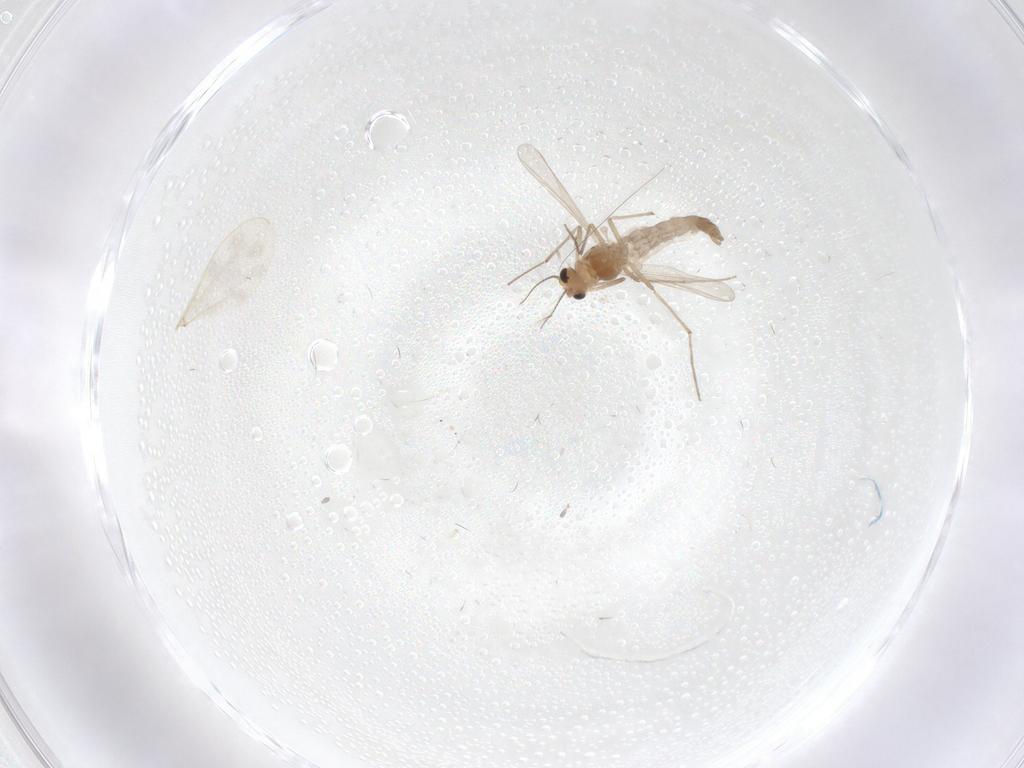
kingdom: Animalia
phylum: Arthropoda
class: Insecta
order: Diptera
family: Chironomidae
